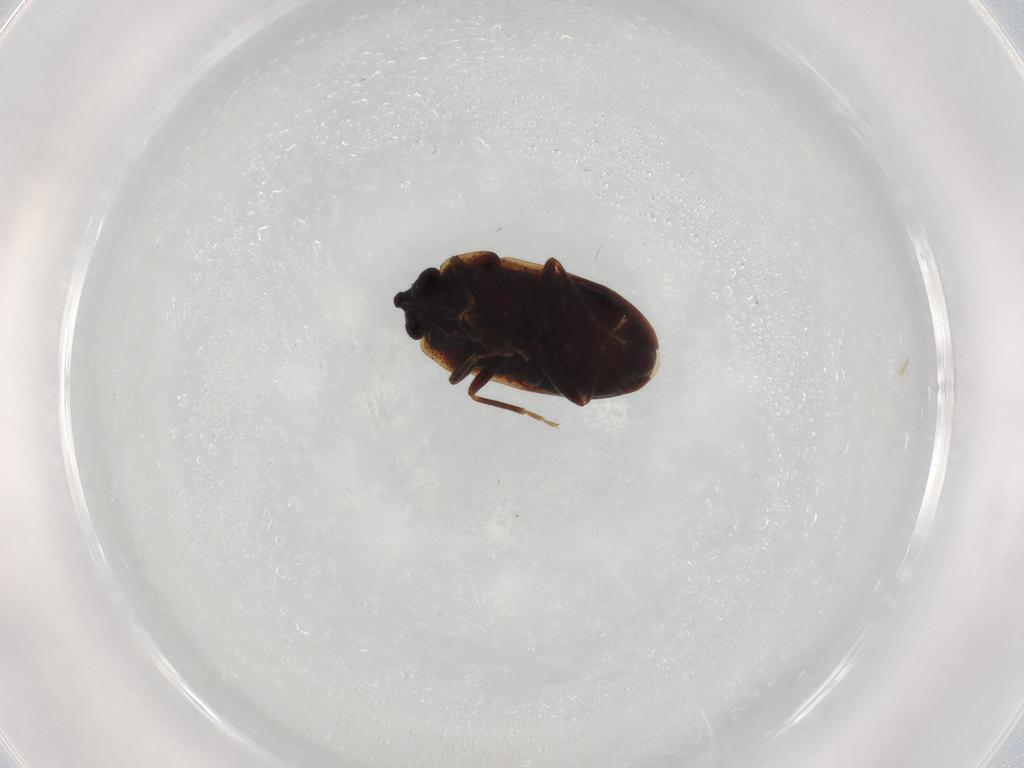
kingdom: Animalia
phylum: Arthropoda
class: Insecta
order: Hemiptera
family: Rhyparochromidae
